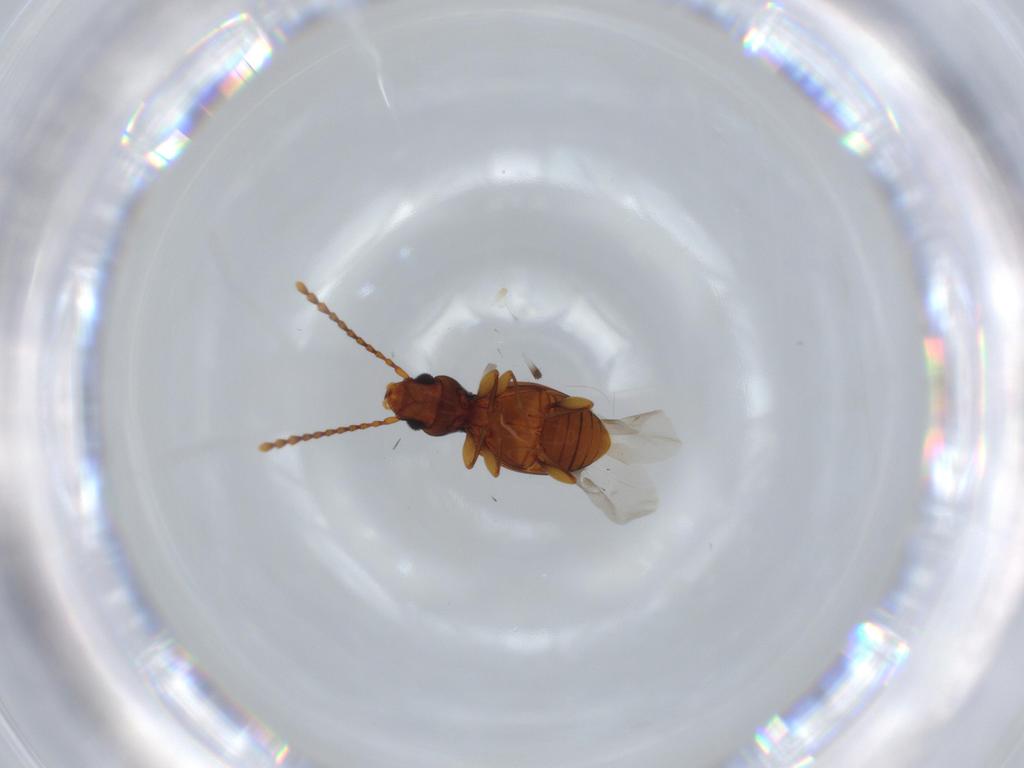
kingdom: Animalia
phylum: Arthropoda
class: Insecta
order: Coleoptera
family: Laemophloeidae
